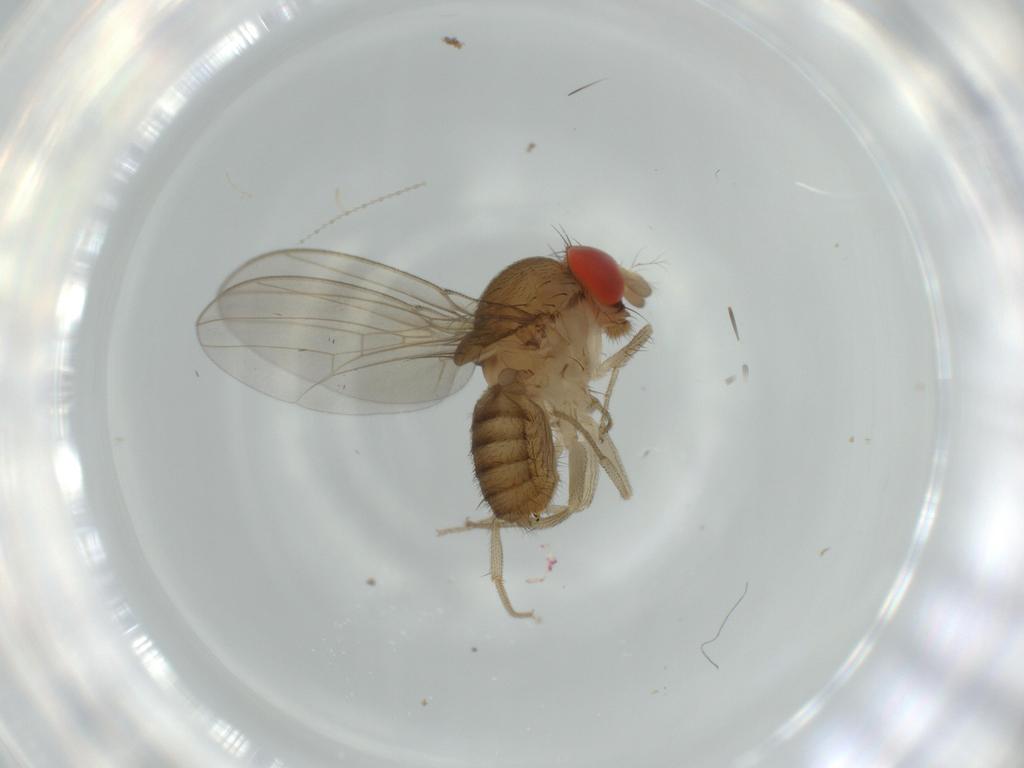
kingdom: Animalia
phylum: Arthropoda
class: Insecta
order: Diptera
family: Drosophilidae
